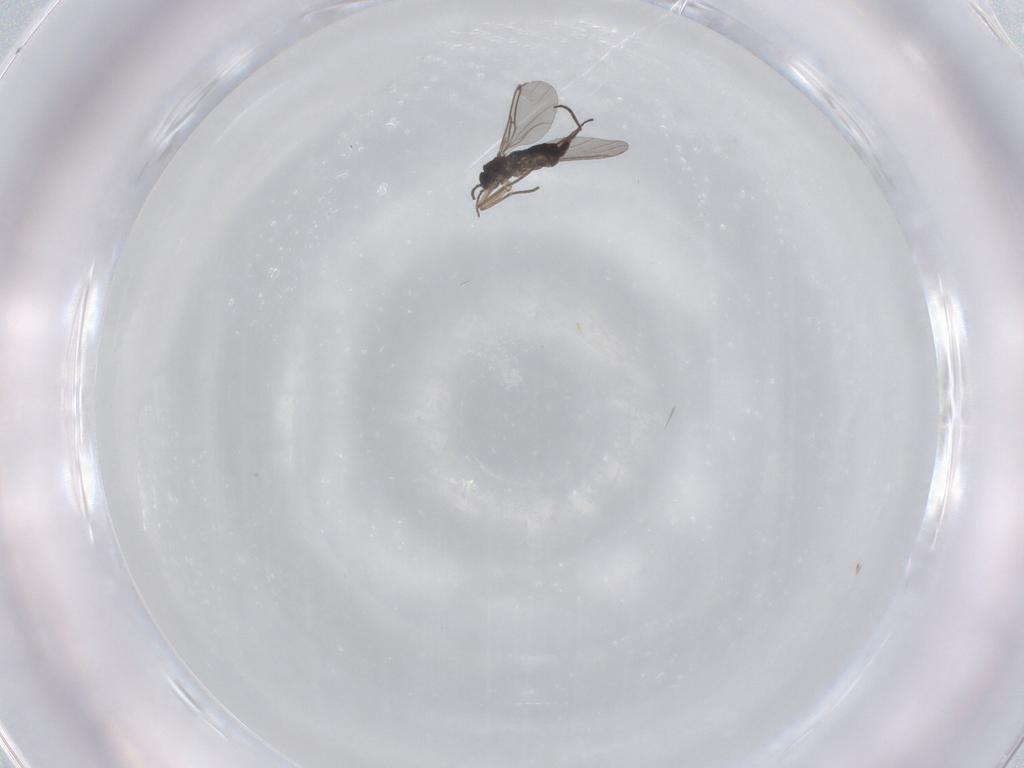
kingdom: Animalia
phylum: Arthropoda
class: Insecta
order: Diptera
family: Sciaridae
